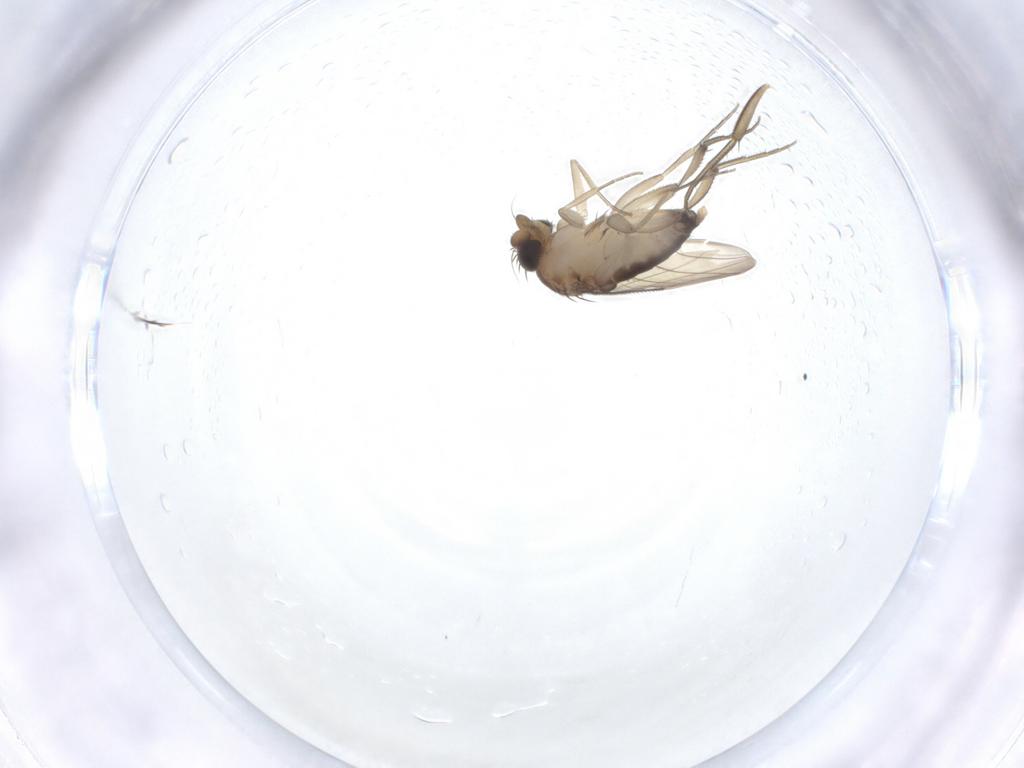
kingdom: Animalia
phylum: Arthropoda
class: Insecta
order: Diptera
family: Phoridae
